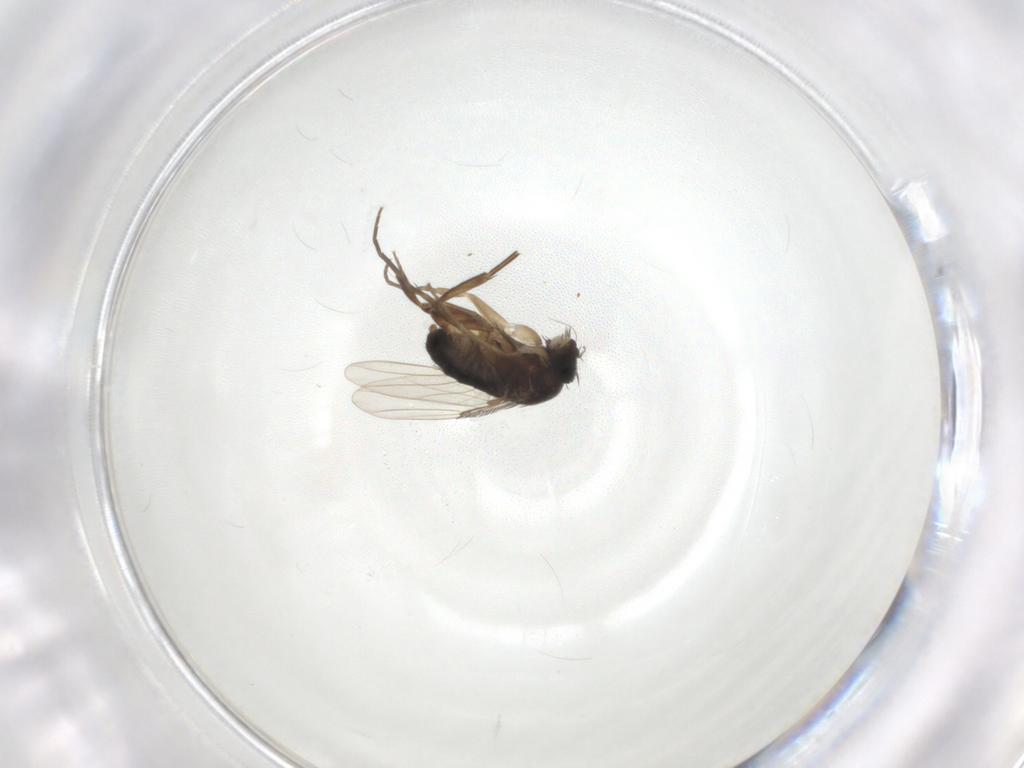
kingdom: Animalia
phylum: Arthropoda
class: Insecta
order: Diptera
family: Phoridae
